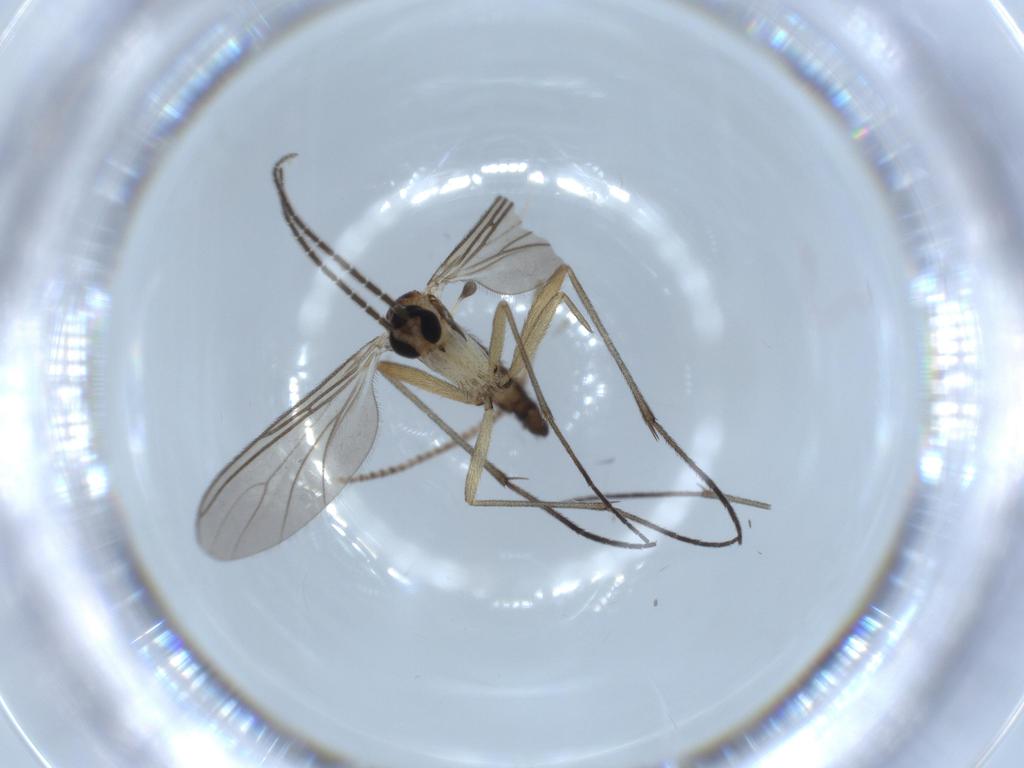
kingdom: Animalia
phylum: Arthropoda
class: Insecta
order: Diptera
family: Sciaridae
